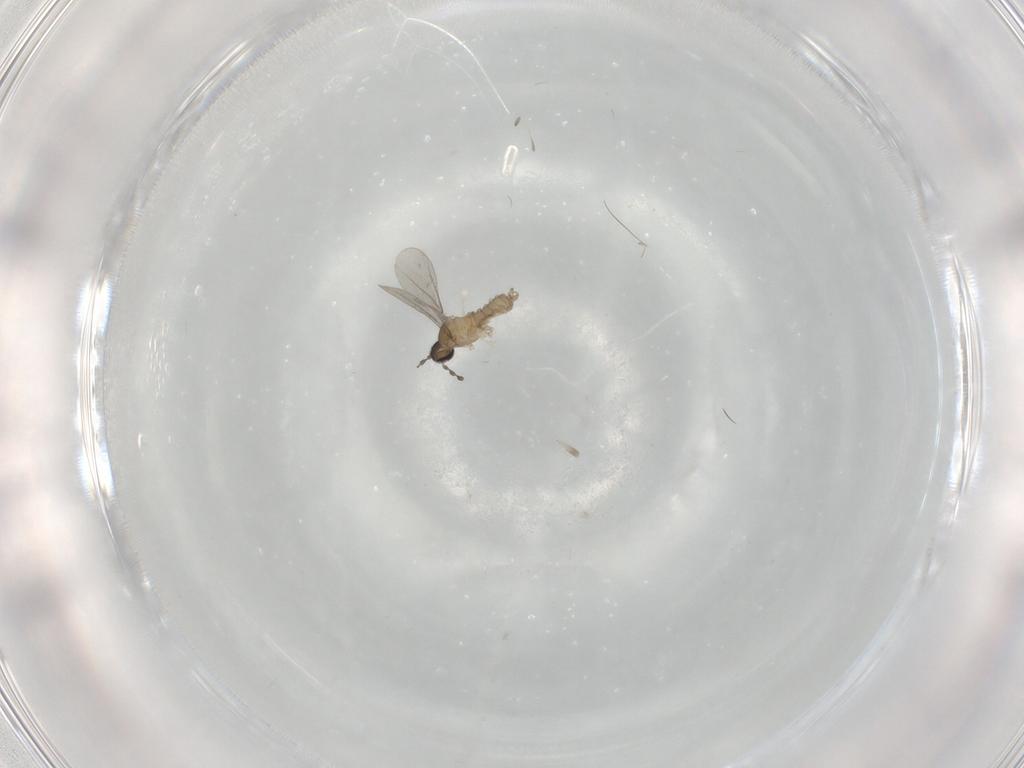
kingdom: Animalia
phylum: Arthropoda
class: Insecta
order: Diptera
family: Cecidomyiidae
